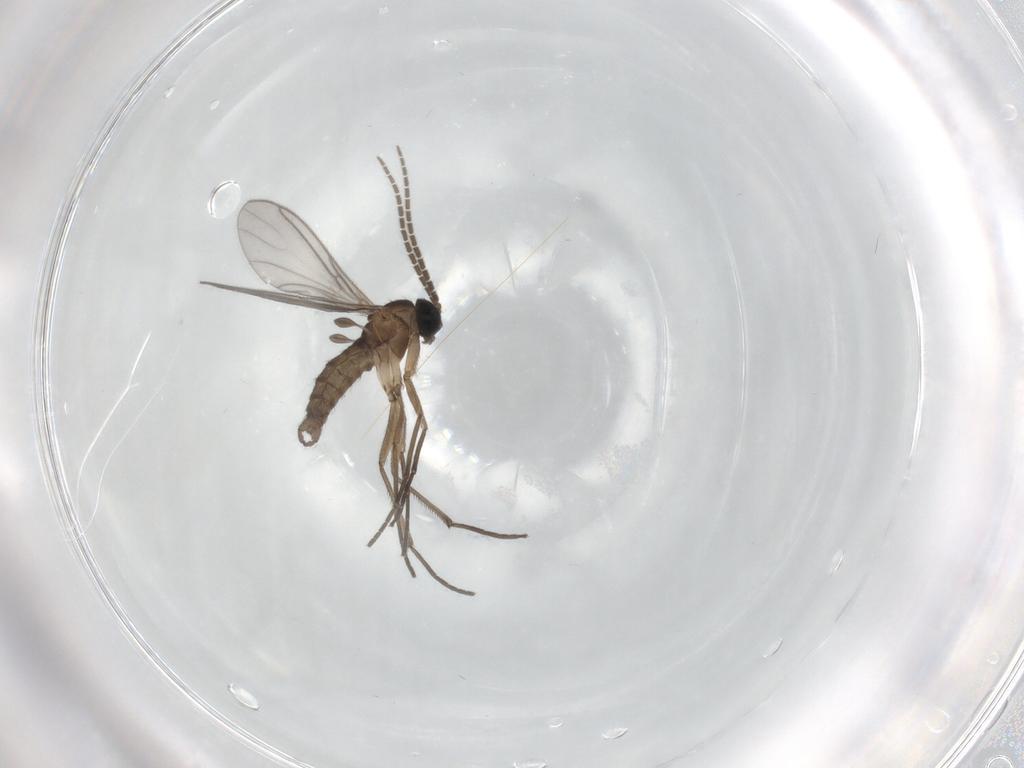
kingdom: Animalia
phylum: Arthropoda
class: Insecta
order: Diptera
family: Sciaridae
